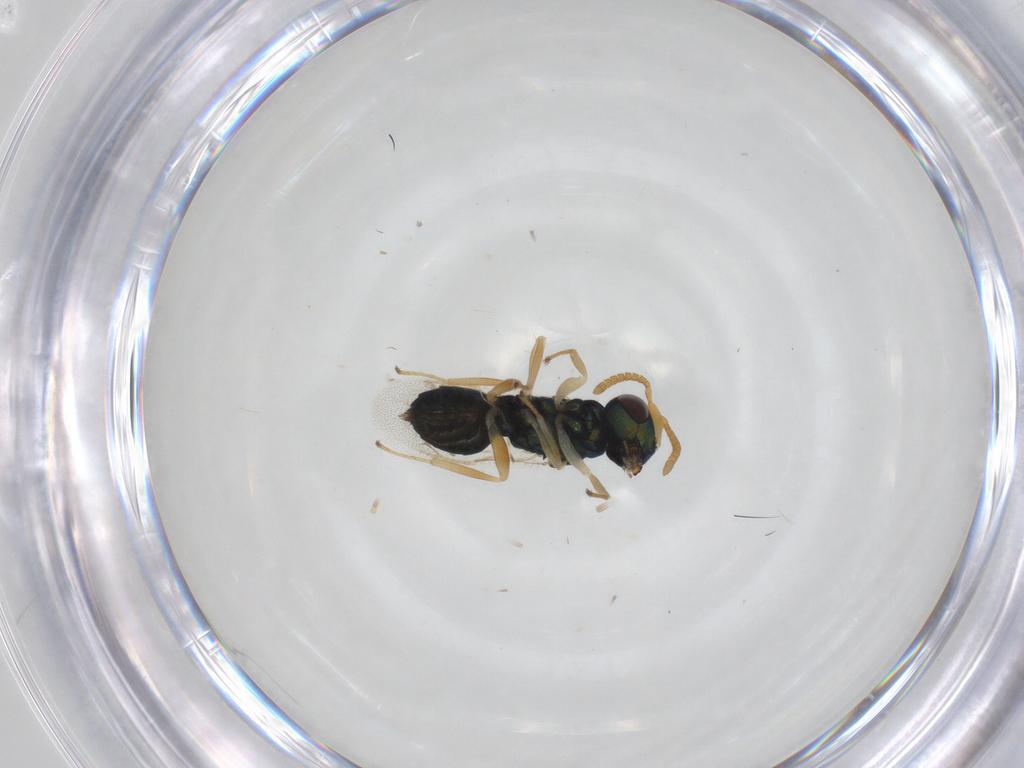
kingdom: Animalia
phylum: Arthropoda
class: Insecta
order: Hymenoptera
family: Pteromalidae
